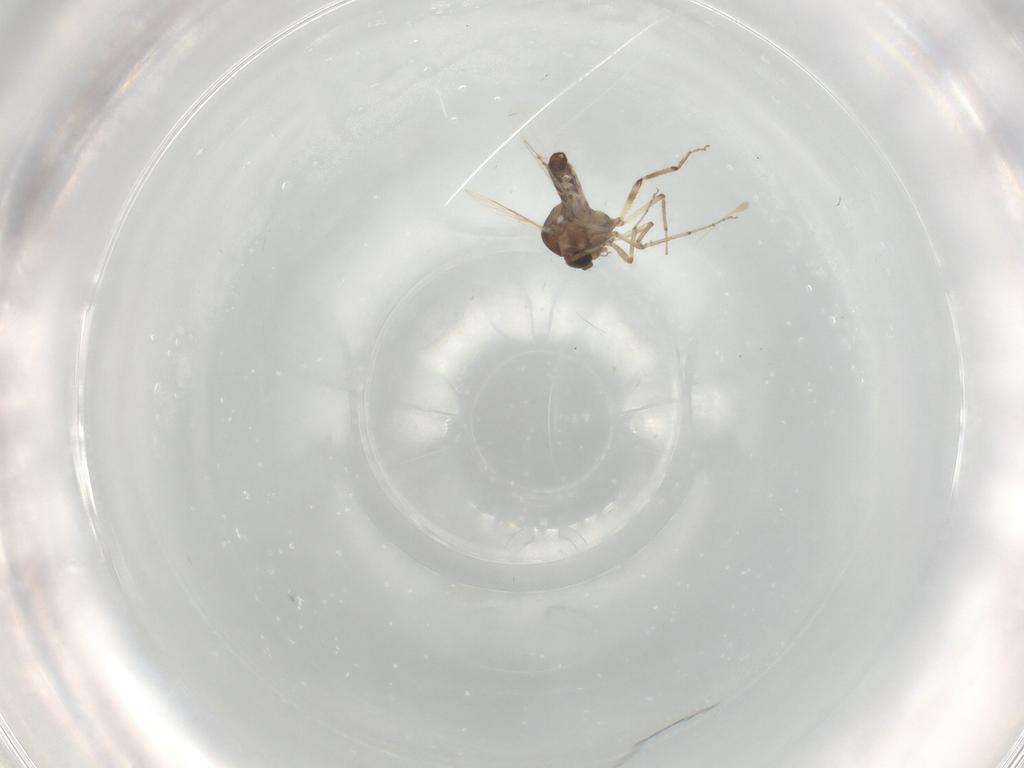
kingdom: Animalia
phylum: Arthropoda
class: Insecta
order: Diptera
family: Ceratopogonidae
